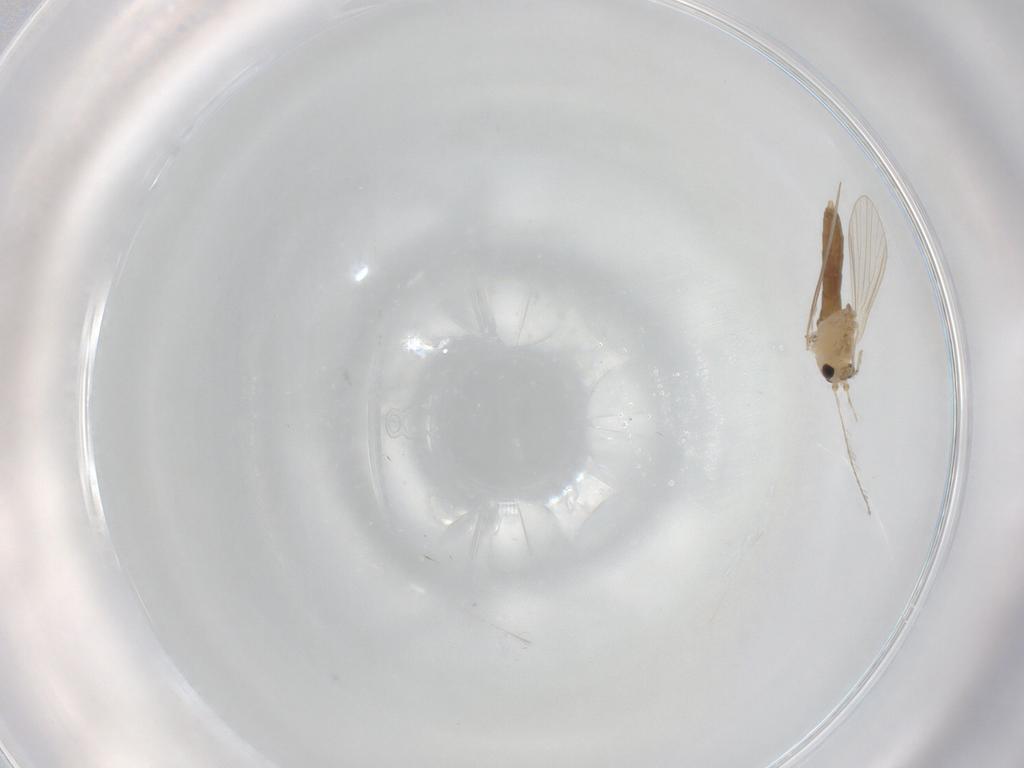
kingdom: Animalia
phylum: Arthropoda
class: Insecta
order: Diptera
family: Psychodidae
